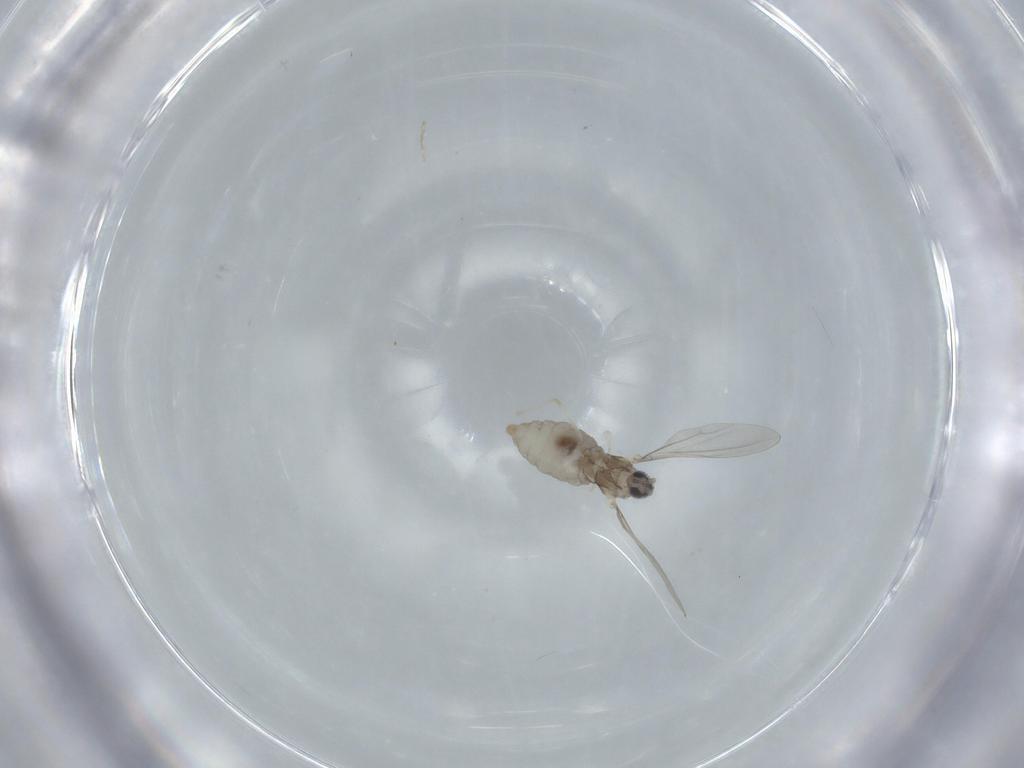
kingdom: Animalia
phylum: Arthropoda
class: Insecta
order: Diptera
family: Cecidomyiidae
